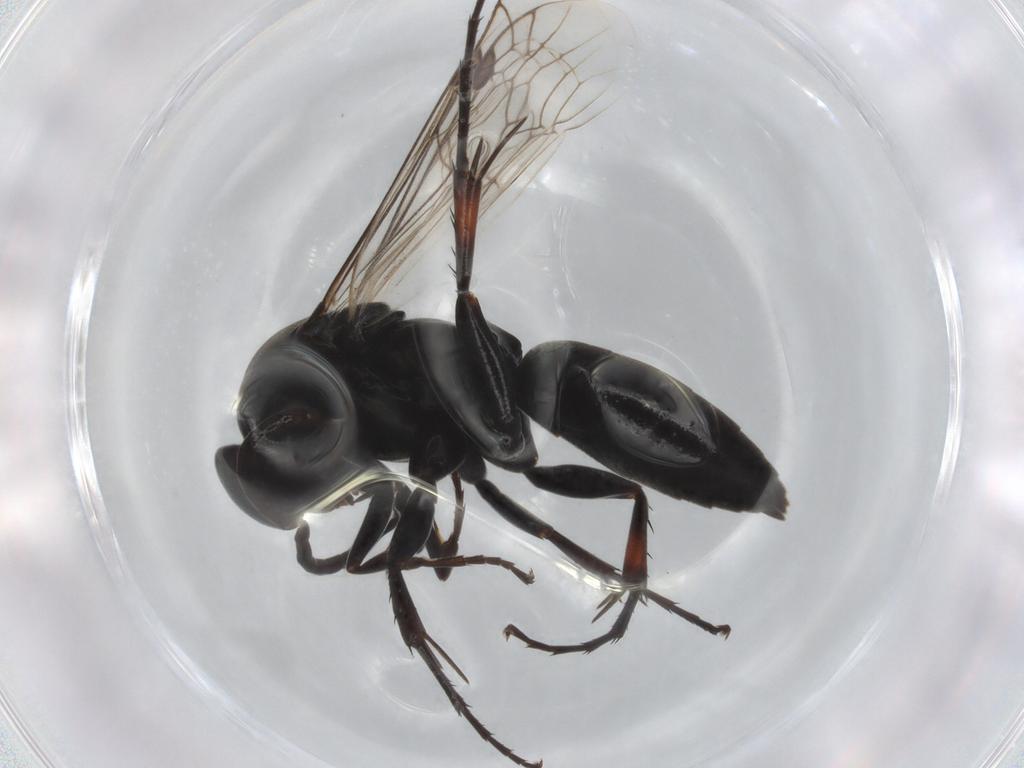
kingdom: Animalia
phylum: Arthropoda
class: Insecta
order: Hymenoptera
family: Pompilidae
